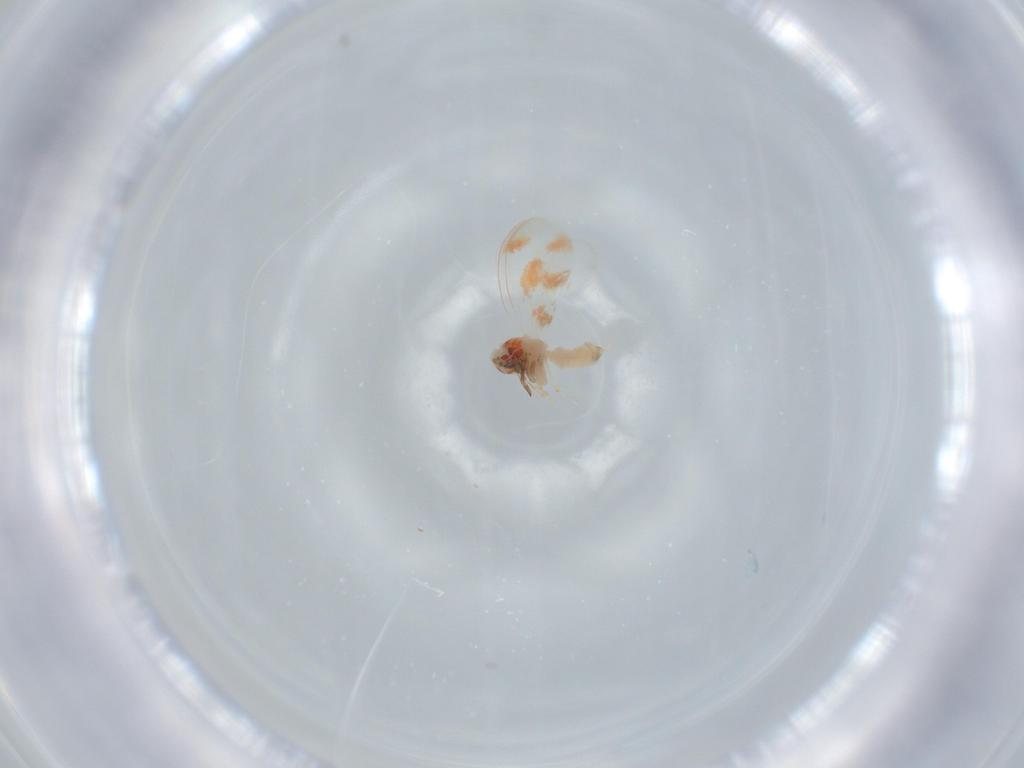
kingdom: Animalia
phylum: Arthropoda
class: Insecta
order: Hemiptera
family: Aleyrodidae
